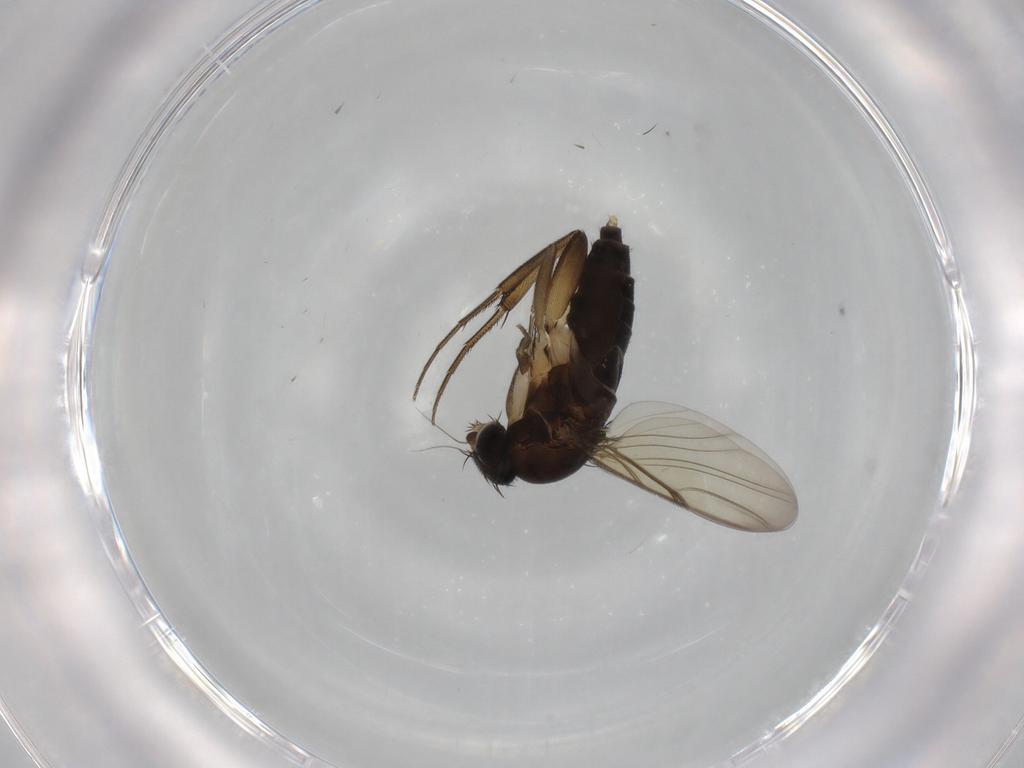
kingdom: Animalia
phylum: Arthropoda
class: Insecta
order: Diptera
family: Phoridae
